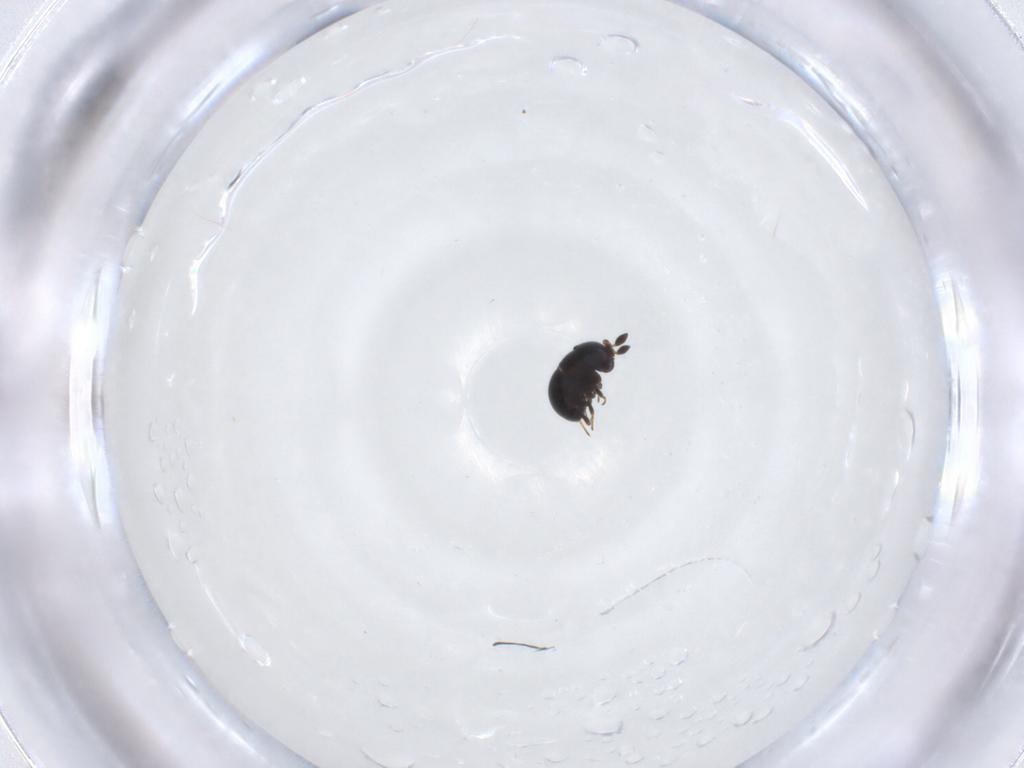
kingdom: Animalia
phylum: Arthropoda
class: Insecta
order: Hymenoptera
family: Scelionidae
